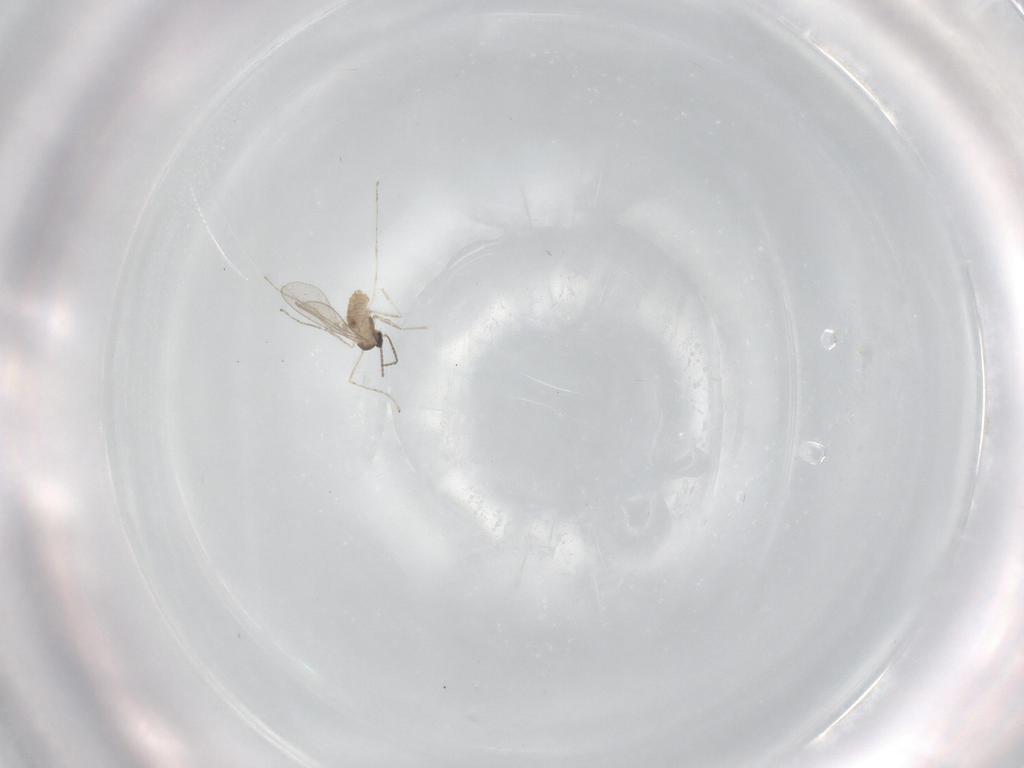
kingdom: Animalia
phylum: Arthropoda
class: Insecta
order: Diptera
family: Cecidomyiidae
